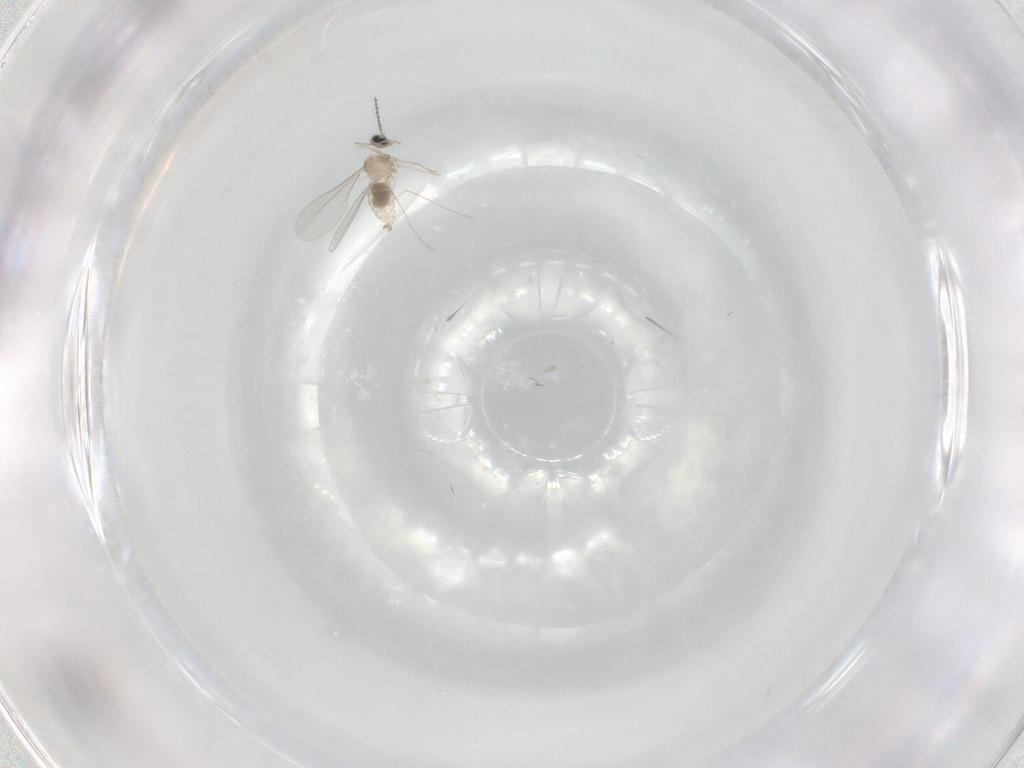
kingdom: Animalia
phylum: Arthropoda
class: Insecta
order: Diptera
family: Cecidomyiidae
